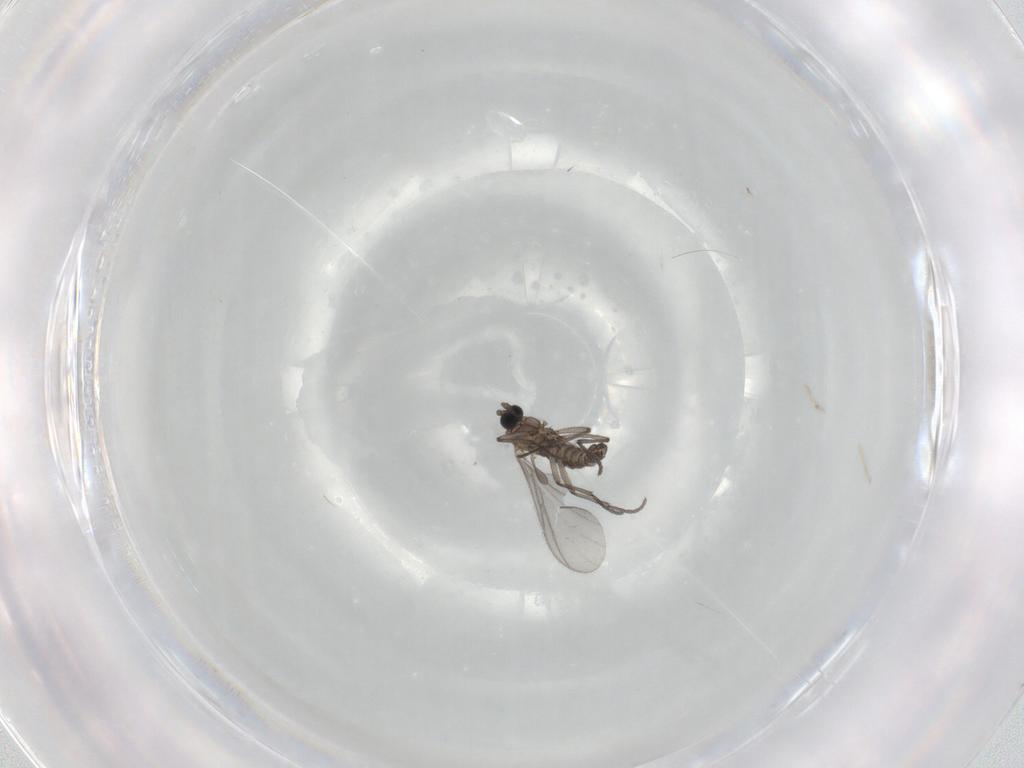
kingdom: Animalia
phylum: Arthropoda
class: Insecta
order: Diptera
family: Sciaridae
